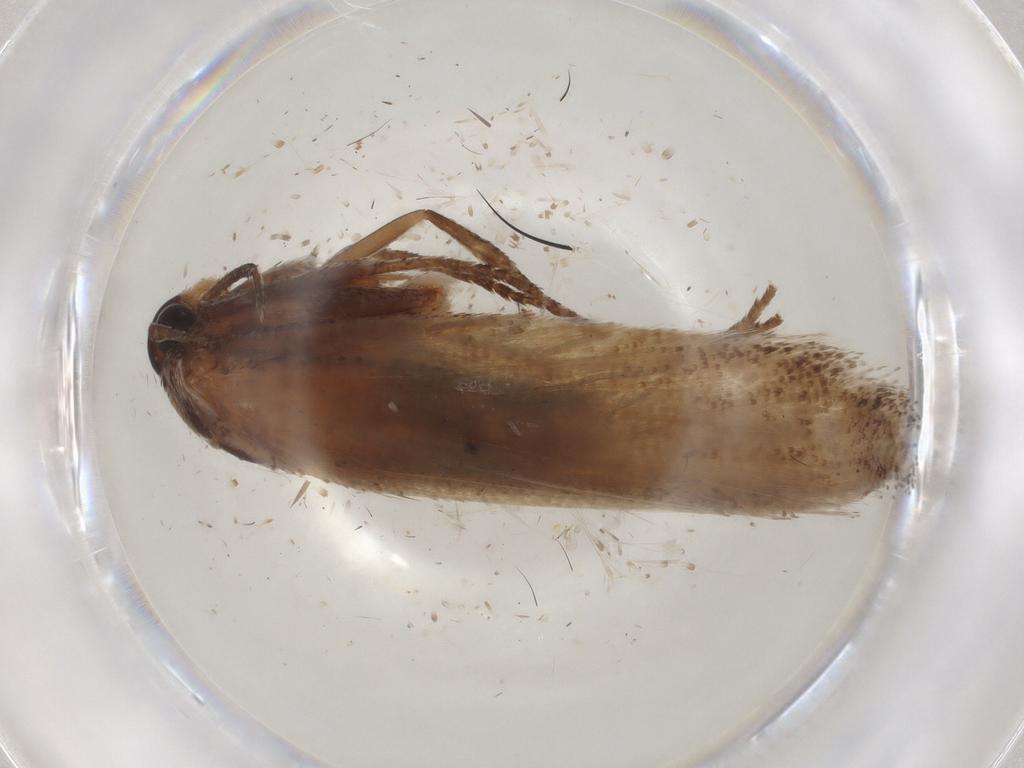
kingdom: Animalia
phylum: Arthropoda
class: Insecta
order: Lepidoptera
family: Cosmopterigidae
